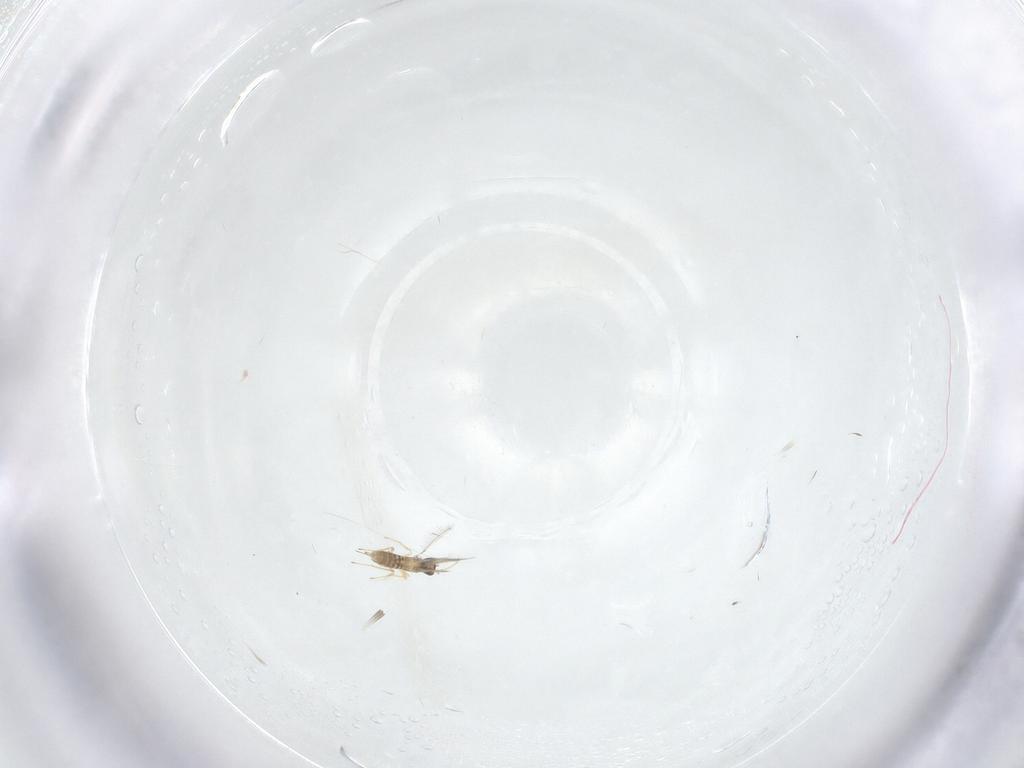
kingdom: Animalia
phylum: Arthropoda
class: Insecta
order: Hymenoptera
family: Mymaridae
